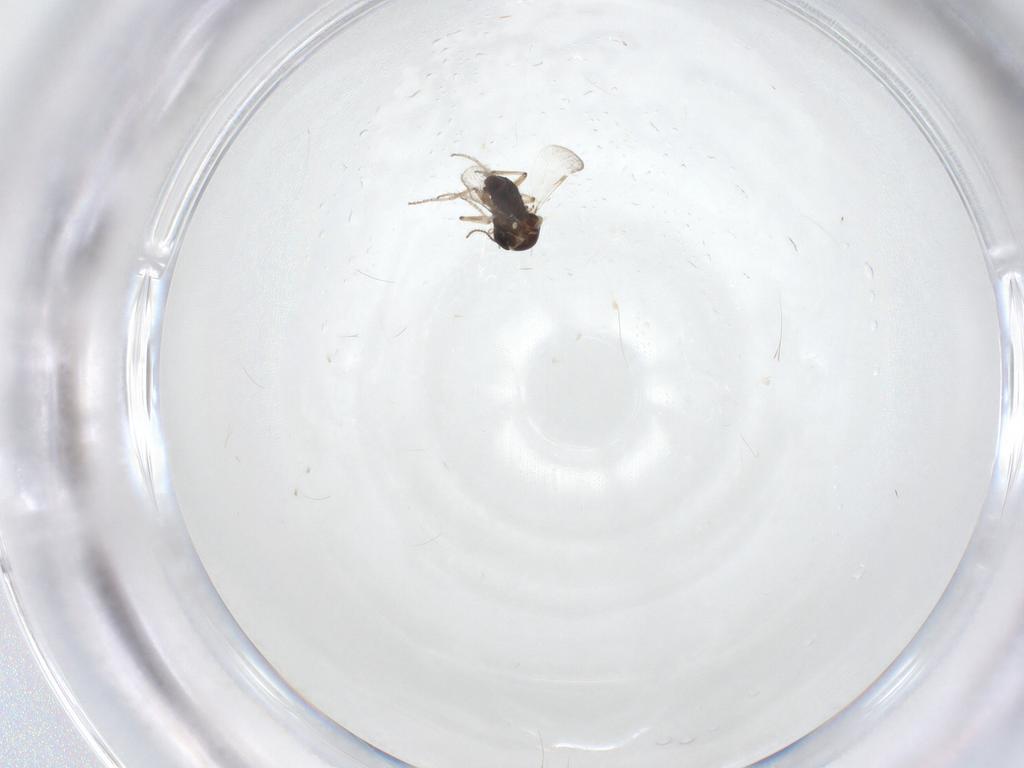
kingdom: Animalia
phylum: Arthropoda
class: Insecta
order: Diptera
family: Ceratopogonidae
